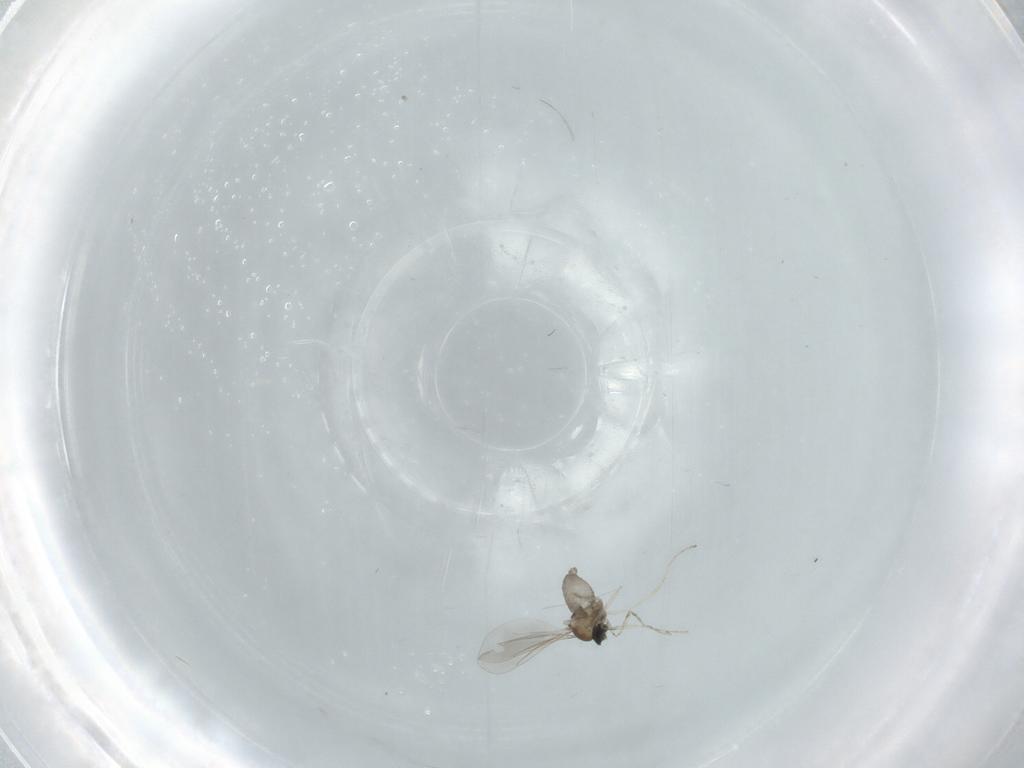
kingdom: Animalia
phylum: Arthropoda
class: Insecta
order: Diptera
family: Cecidomyiidae
